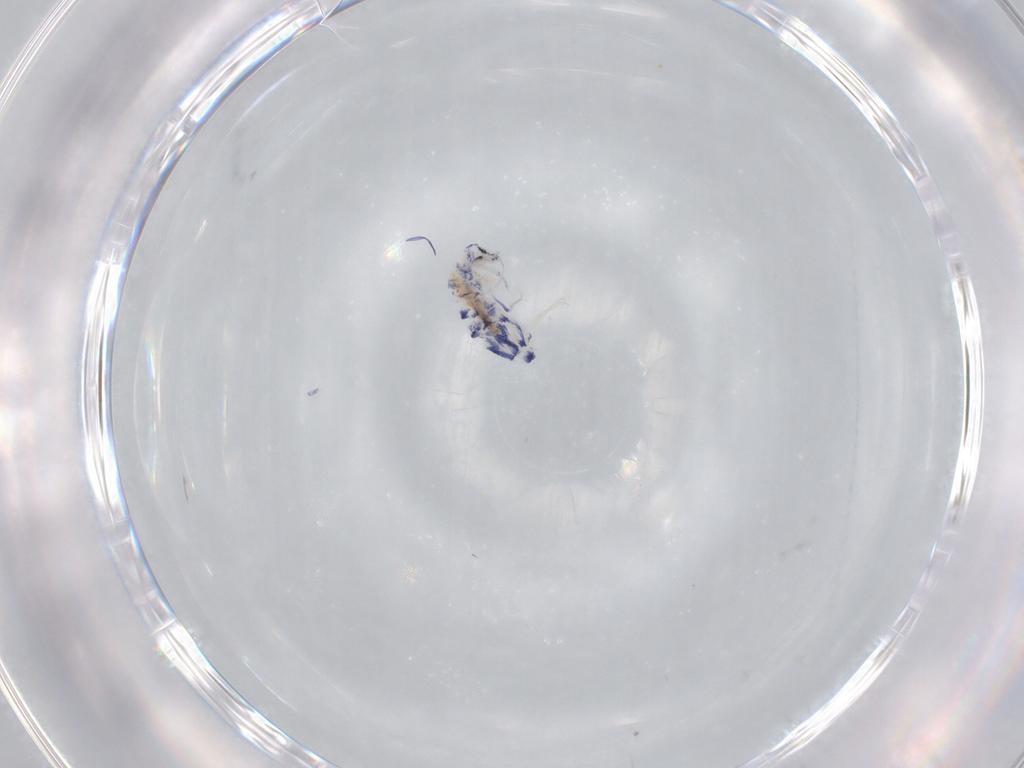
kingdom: Animalia
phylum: Arthropoda
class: Collembola
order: Entomobryomorpha
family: Entomobryidae
